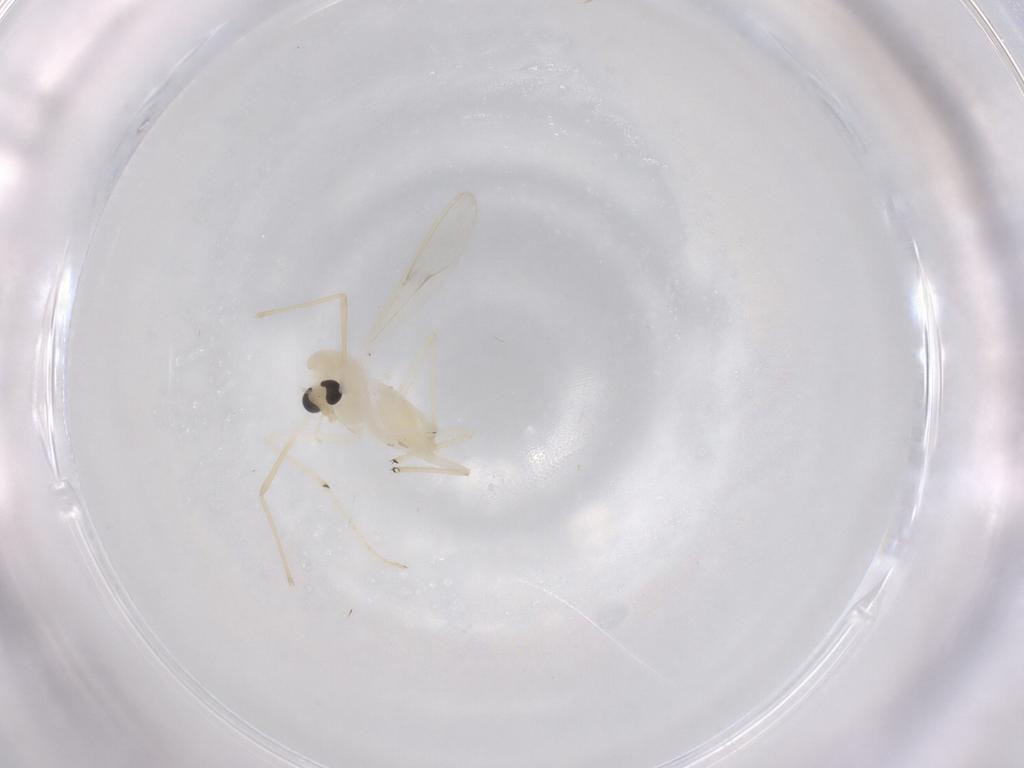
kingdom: Animalia
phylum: Arthropoda
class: Insecta
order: Diptera
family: Chironomidae
